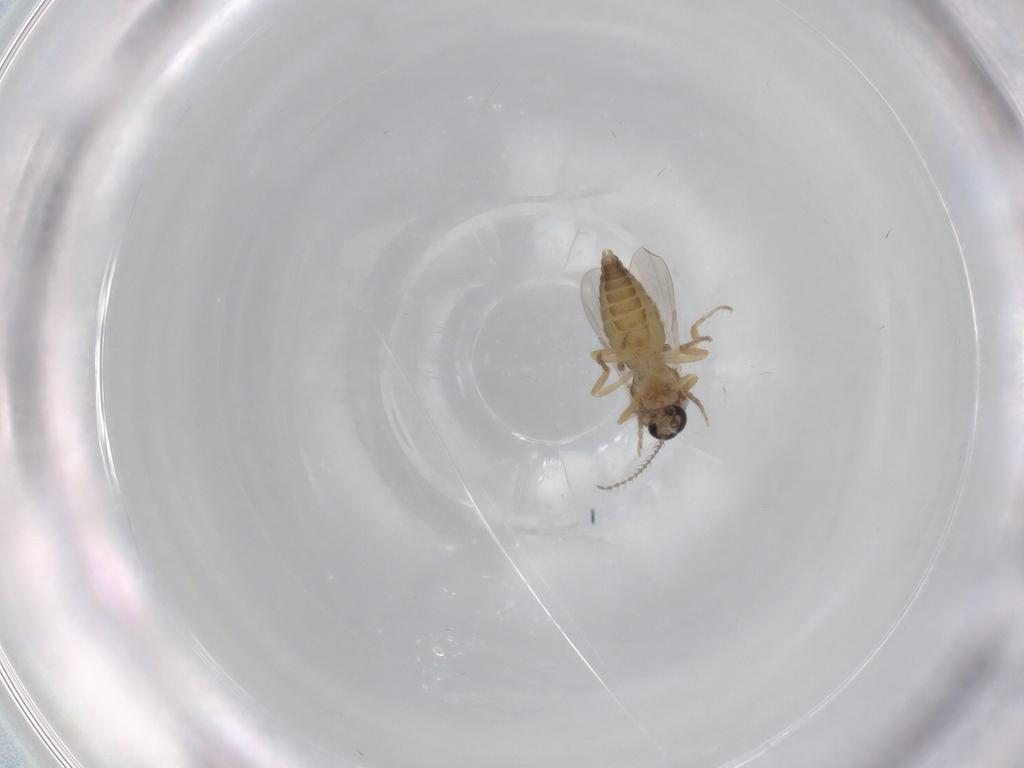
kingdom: Animalia
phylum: Arthropoda
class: Insecta
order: Diptera
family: Ceratopogonidae
